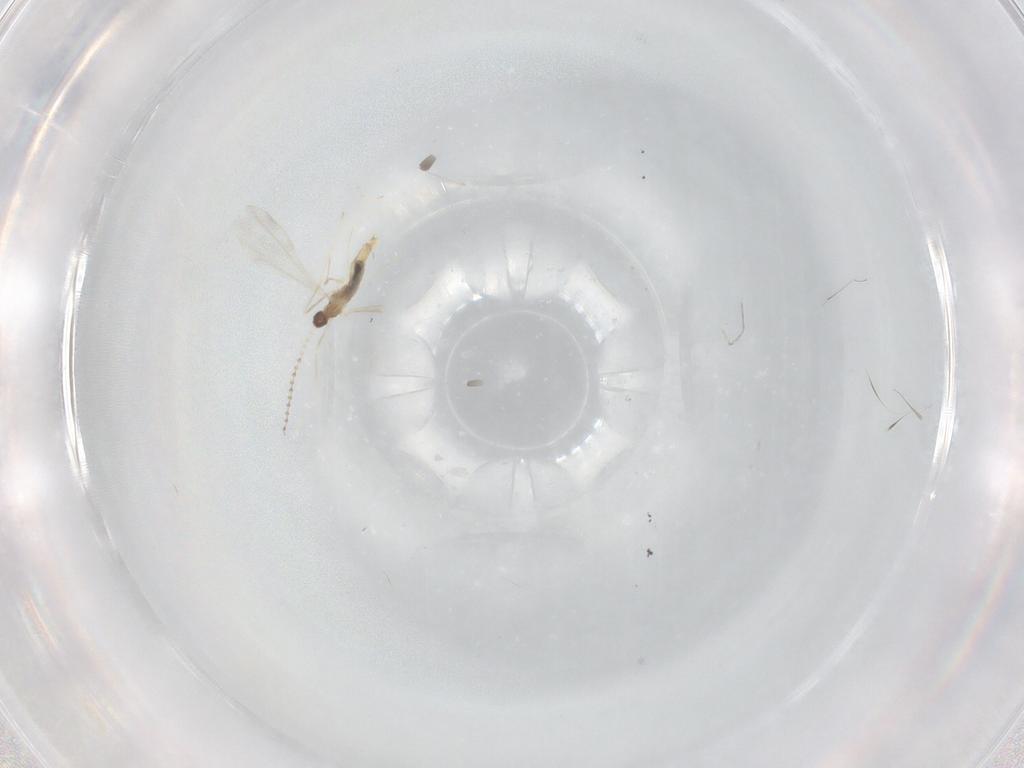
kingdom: Animalia
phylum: Arthropoda
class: Insecta
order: Diptera
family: Cecidomyiidae
